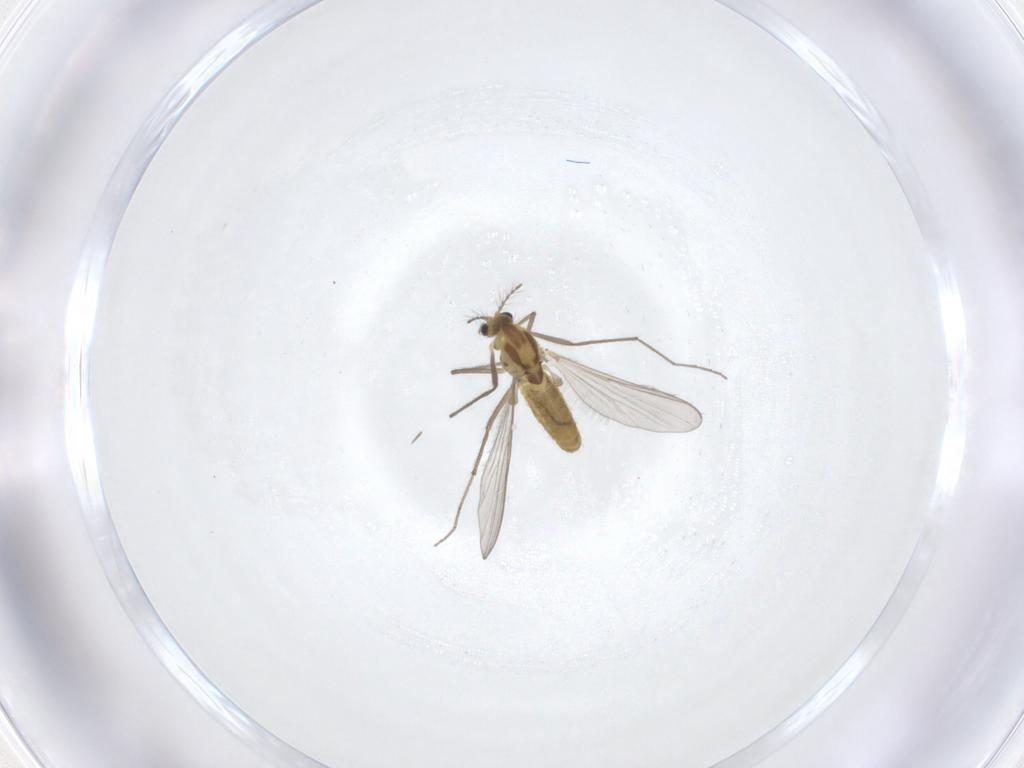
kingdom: Animalia
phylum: Arthropoda
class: Insecta
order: Diptera
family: Chironomidae
